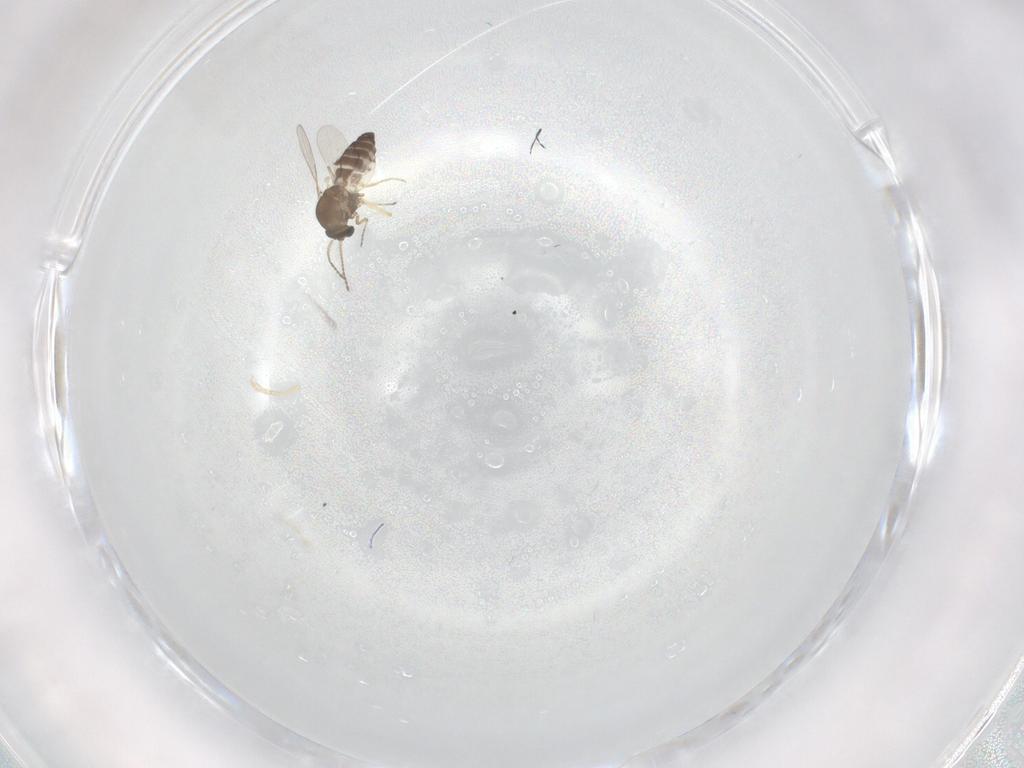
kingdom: Animalia
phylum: Arthropoda
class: Insecta
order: Diptera
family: Ceratopogonidae
